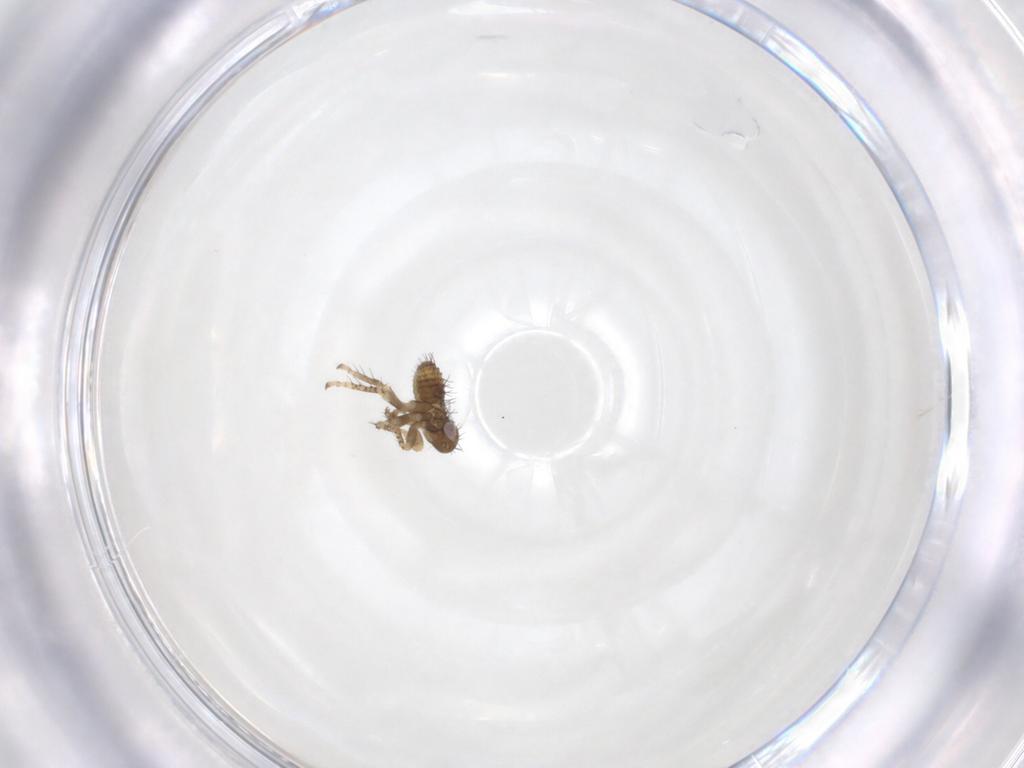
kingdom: Animalia
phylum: Arthropoda
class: Insecta
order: Hemiptera
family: Cicadellidae
